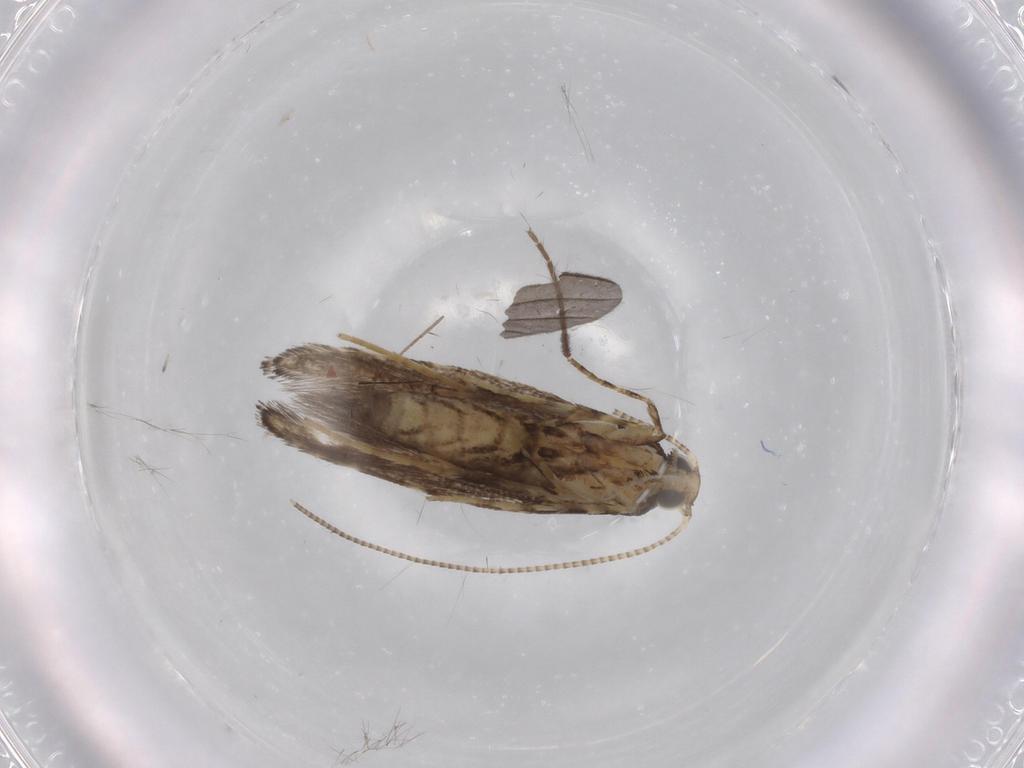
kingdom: Animalia
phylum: Arthropoda
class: Insecta
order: Lepidoptera
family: Gracillariidae
